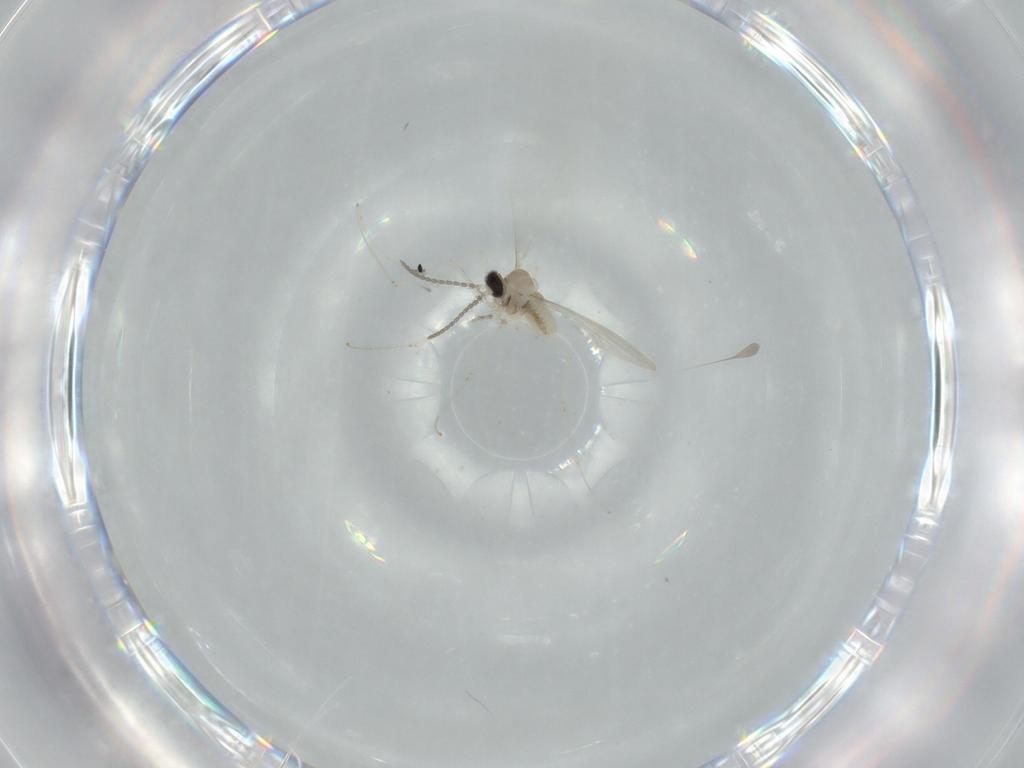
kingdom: Animalia
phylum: Arthropoda
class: Insecta
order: Diptera
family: Cecidomyiidae
